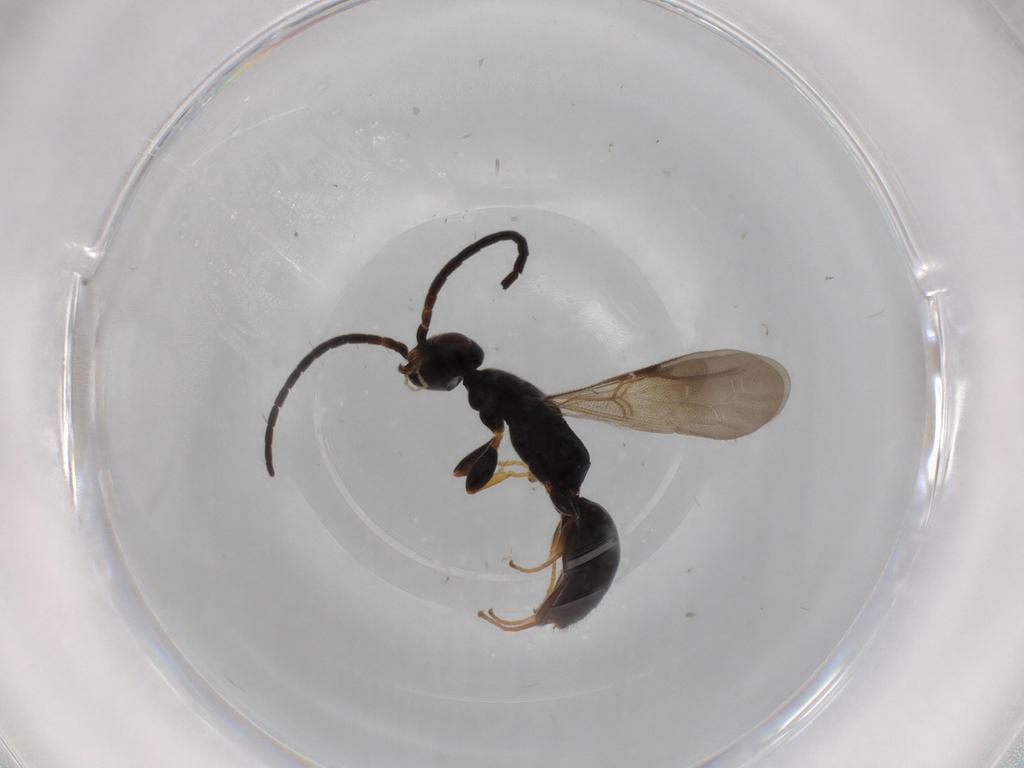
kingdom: Animalia
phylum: Arthropoda
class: Insecta
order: Hymenoptera
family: Bethylidae
